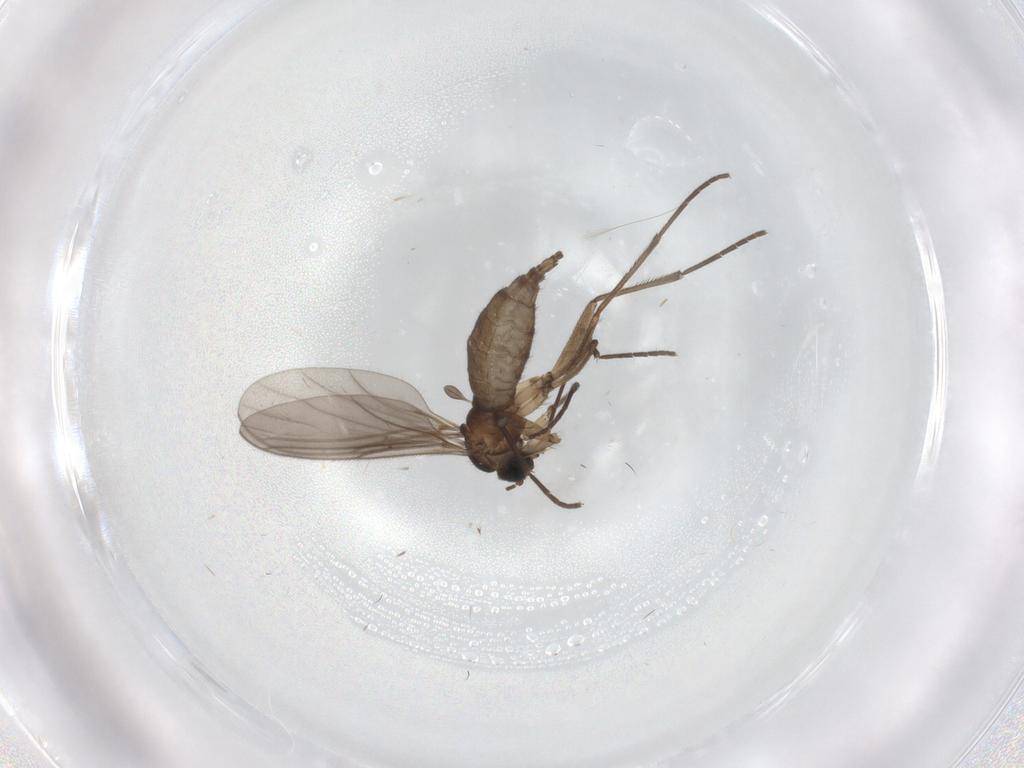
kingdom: Animalia
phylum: Arthropoda
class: Insecta
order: Diptera
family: Sciaridae
